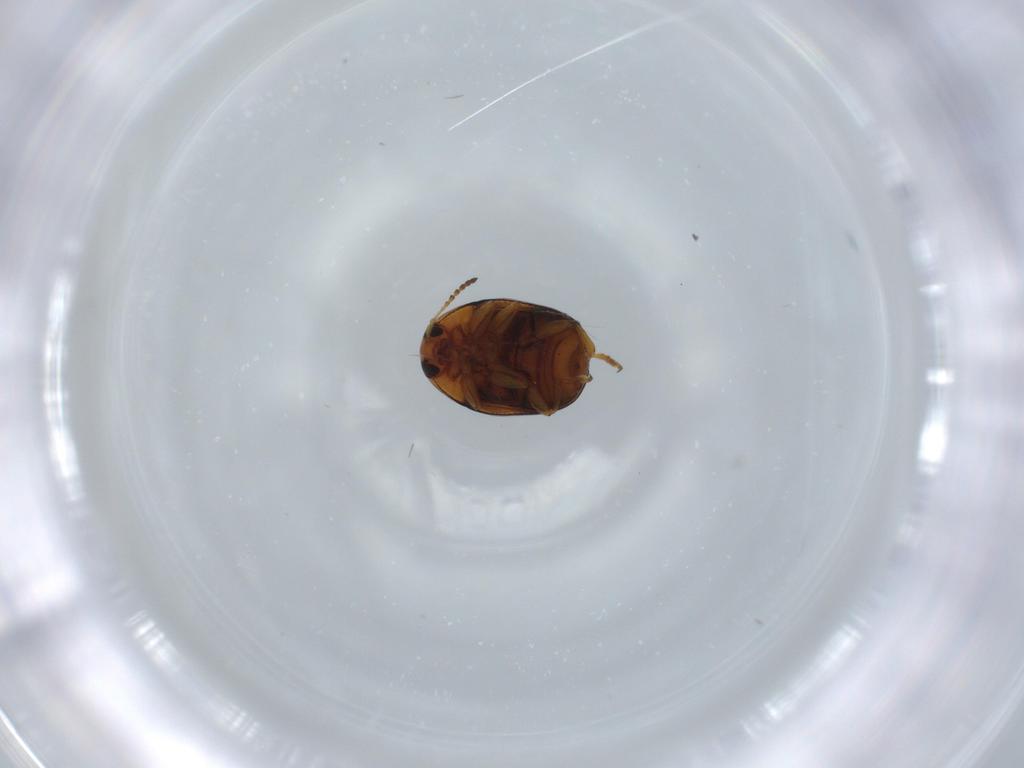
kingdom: Animalia
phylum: Arthropoda
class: Insecta
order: Coleoptera
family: Chrysomelidae
